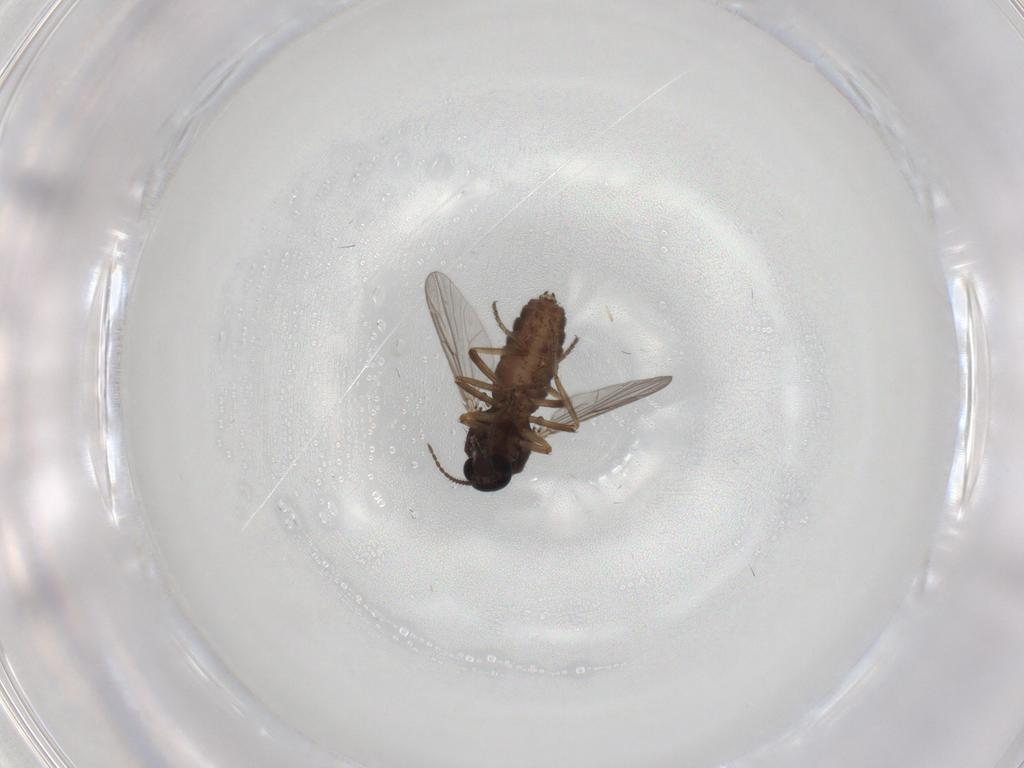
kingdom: Animalia
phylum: Arthropoda
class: Insecta
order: Diptera
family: Ceratopogonidae
